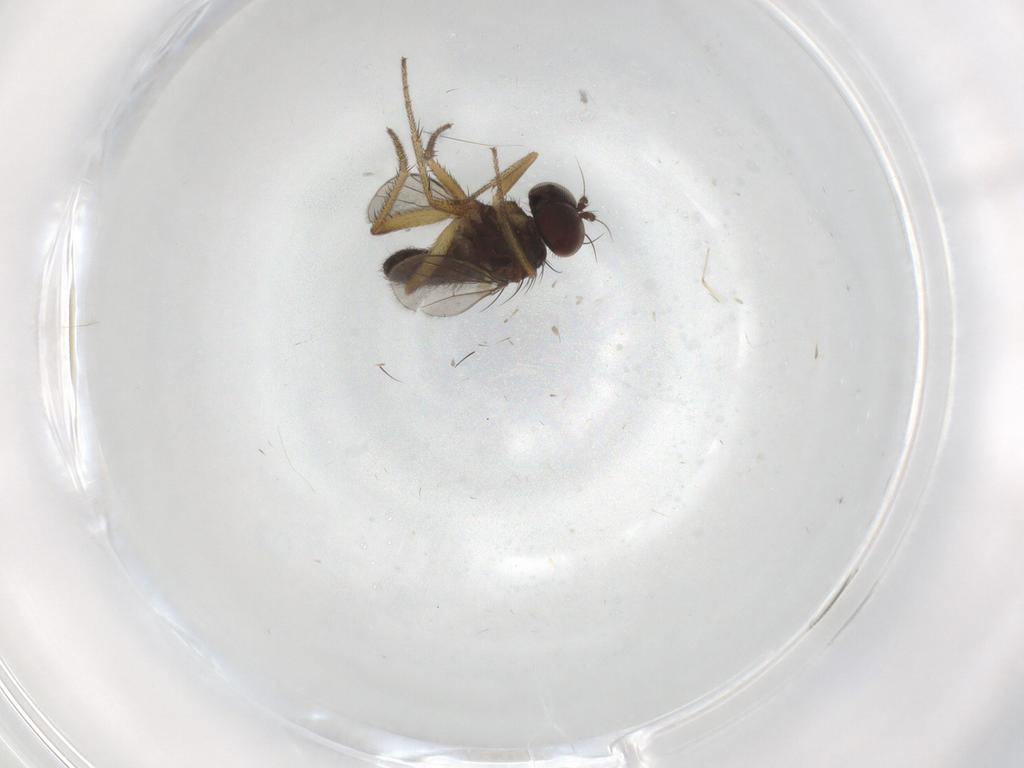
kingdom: Animalia
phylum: Arthropoda
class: Insecta
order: Diptera
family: Dolichopodidae
